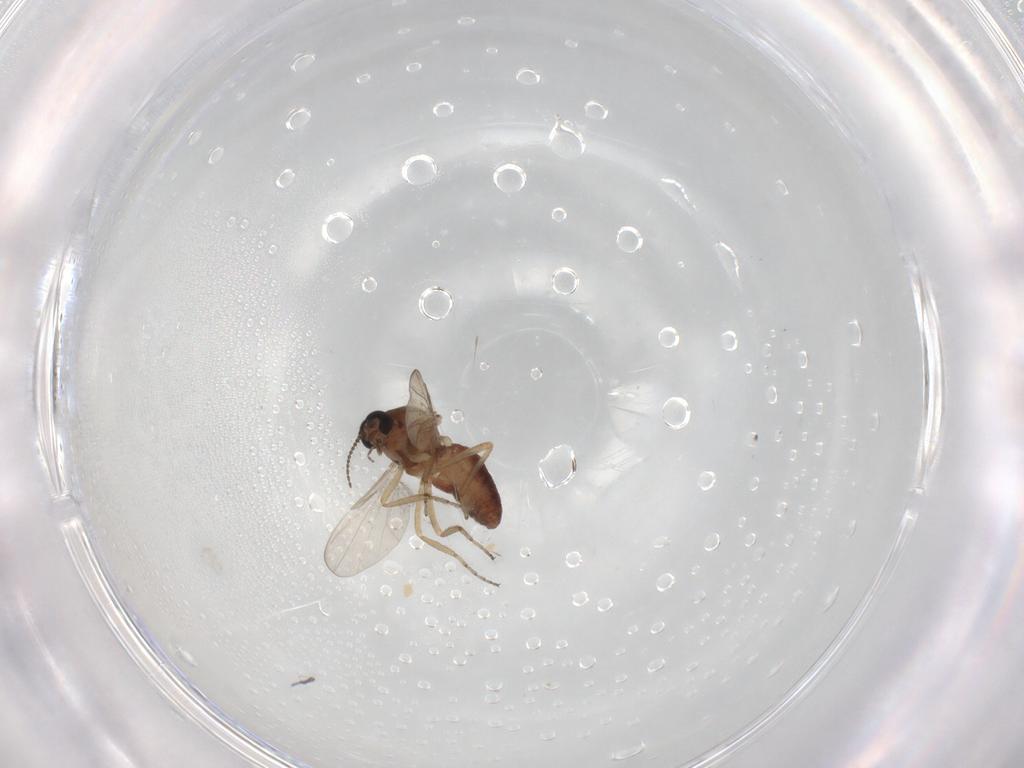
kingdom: Animalia
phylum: Arthropoda
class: Insecta
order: Diptera
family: Ceratopogonidae
